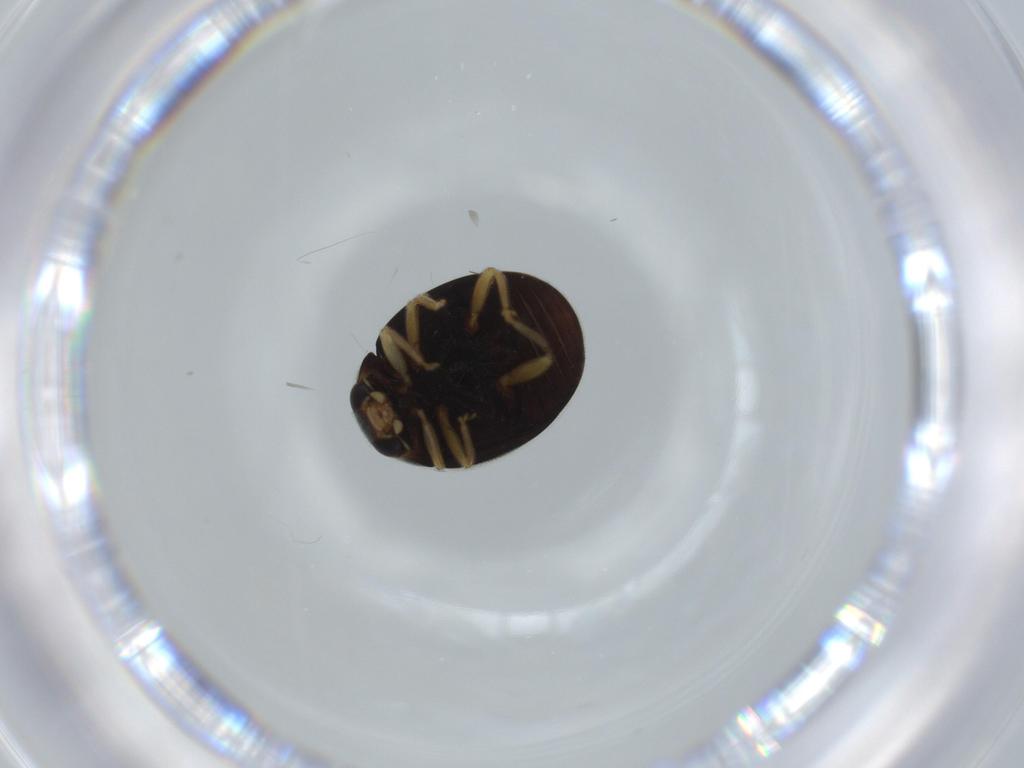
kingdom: Animalia
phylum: Arthropoda
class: Insecta
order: Coleoptera
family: Coccinellidae
